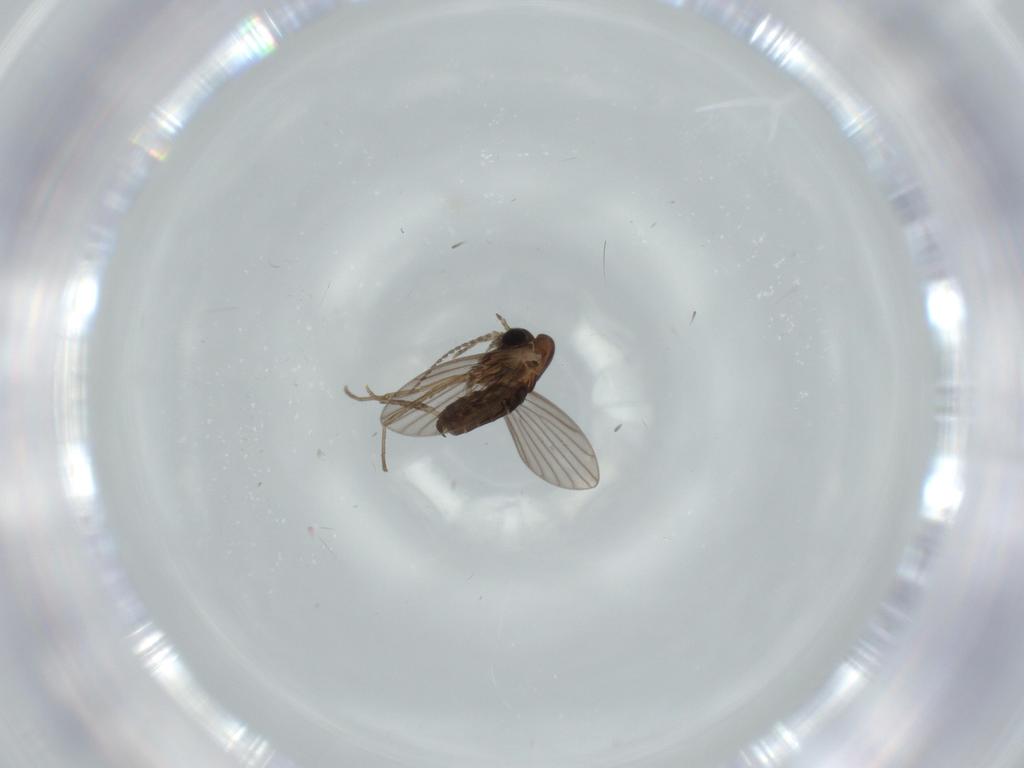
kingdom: Animalia
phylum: Arthropoda
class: Insecta
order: Diptera
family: Psychodidae
